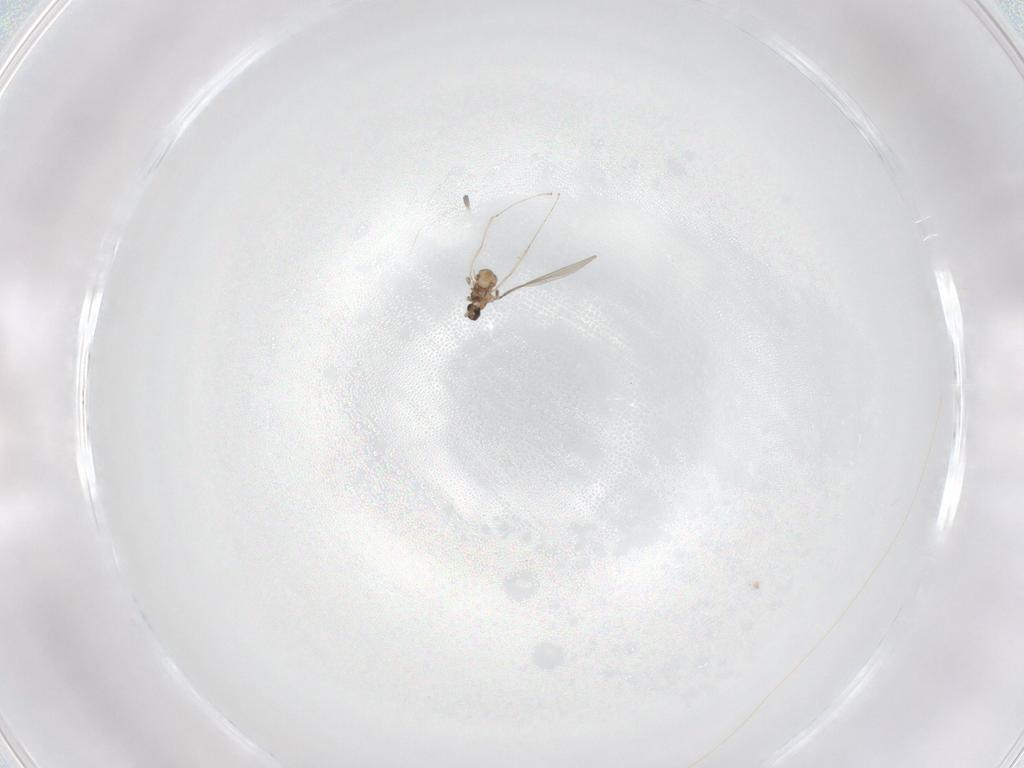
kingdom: Animalia
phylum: Arthropoda
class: Insecta
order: Diptera
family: Cecidomyiidae
